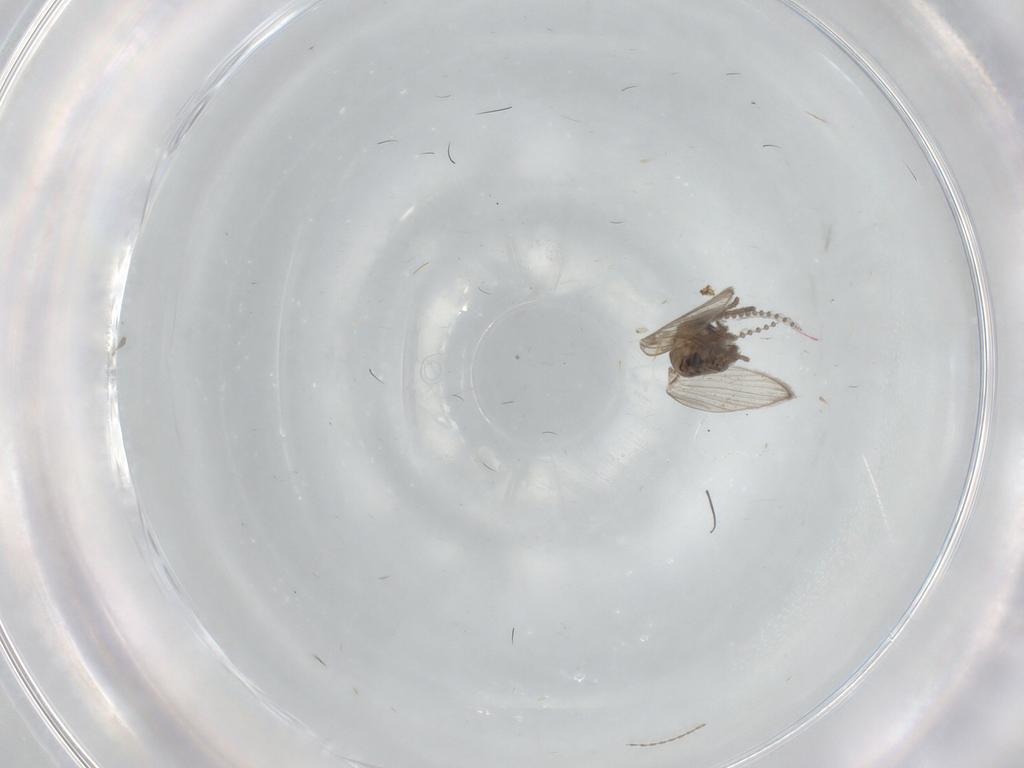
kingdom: Animalia
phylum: Arthropoda
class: Insecta
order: Diptera
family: Psychodidae
